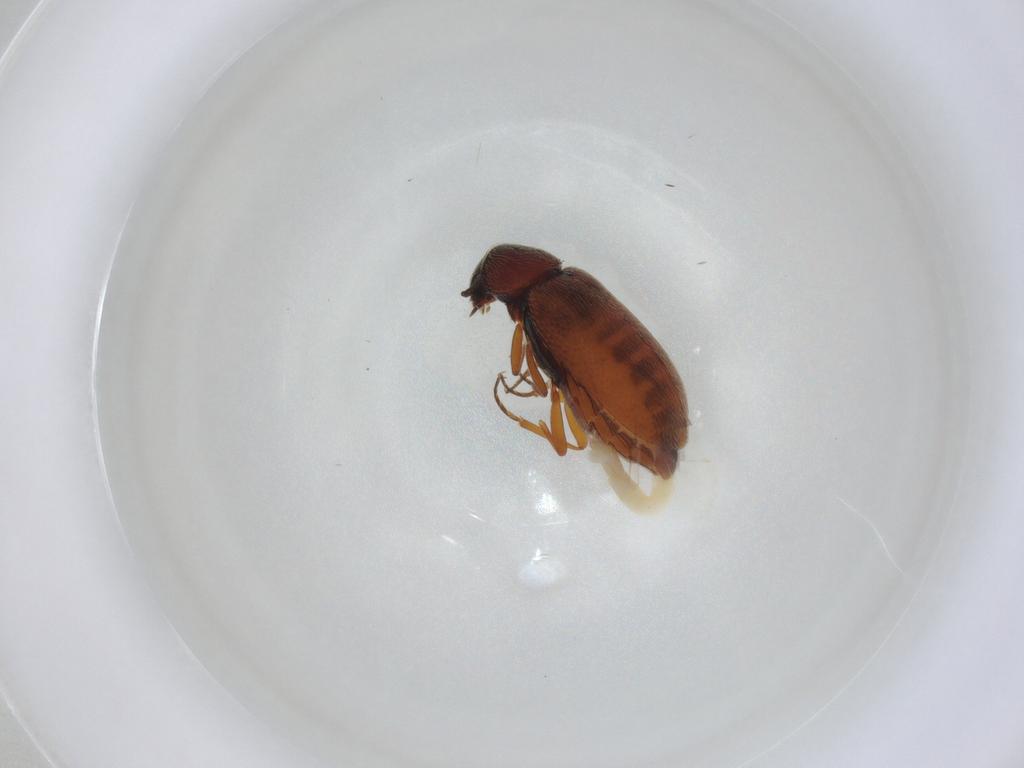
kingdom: Animalia
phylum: Arthropoda
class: Insecta
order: Coleoptera
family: Rhadalidae
